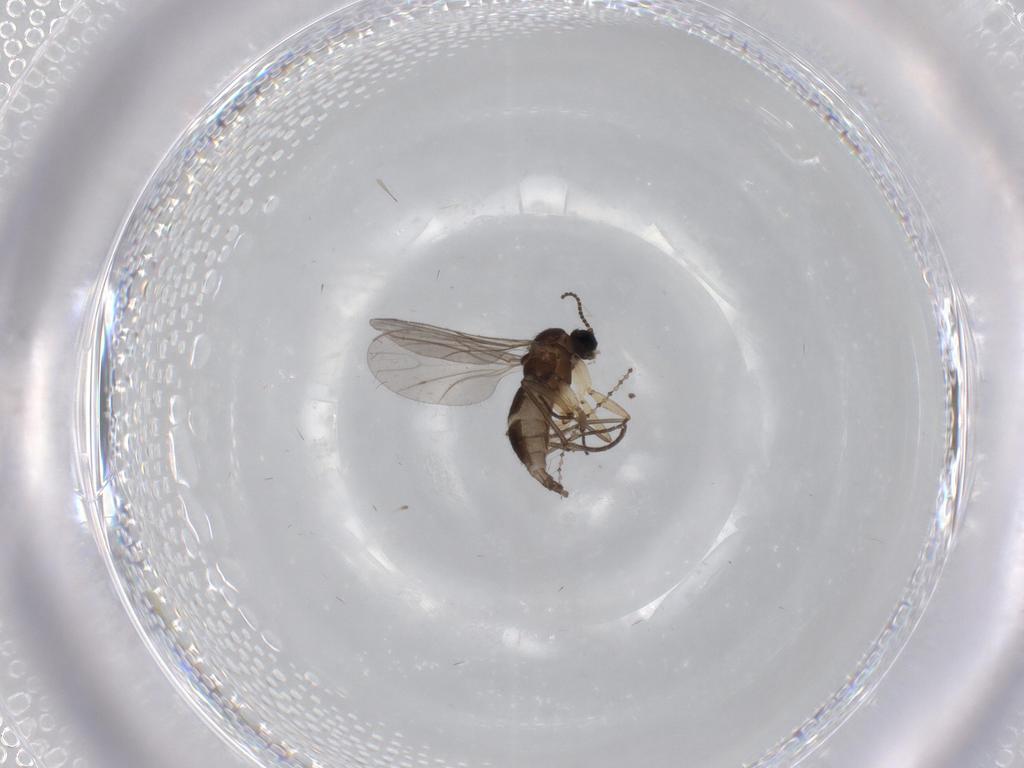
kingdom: Animalia
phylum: Arthropoda
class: Insecta
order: Diptera
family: Sciaridae
